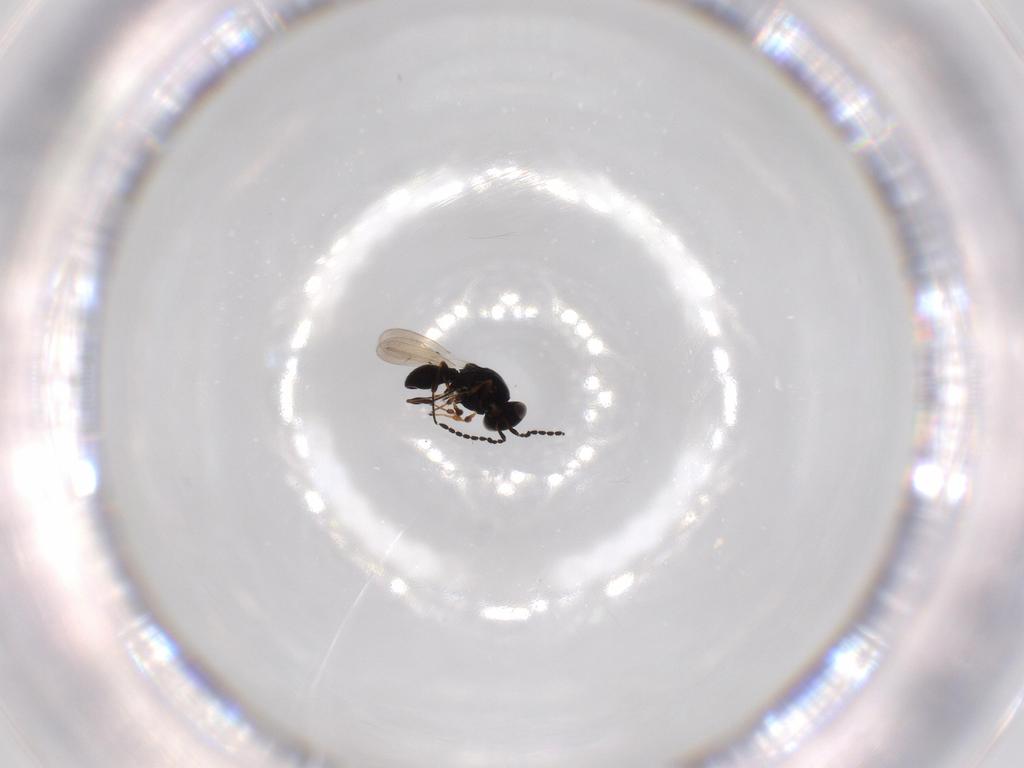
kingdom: Animalia
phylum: Arthropoda
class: Insecta
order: Hymenoptera
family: Platygastridae
